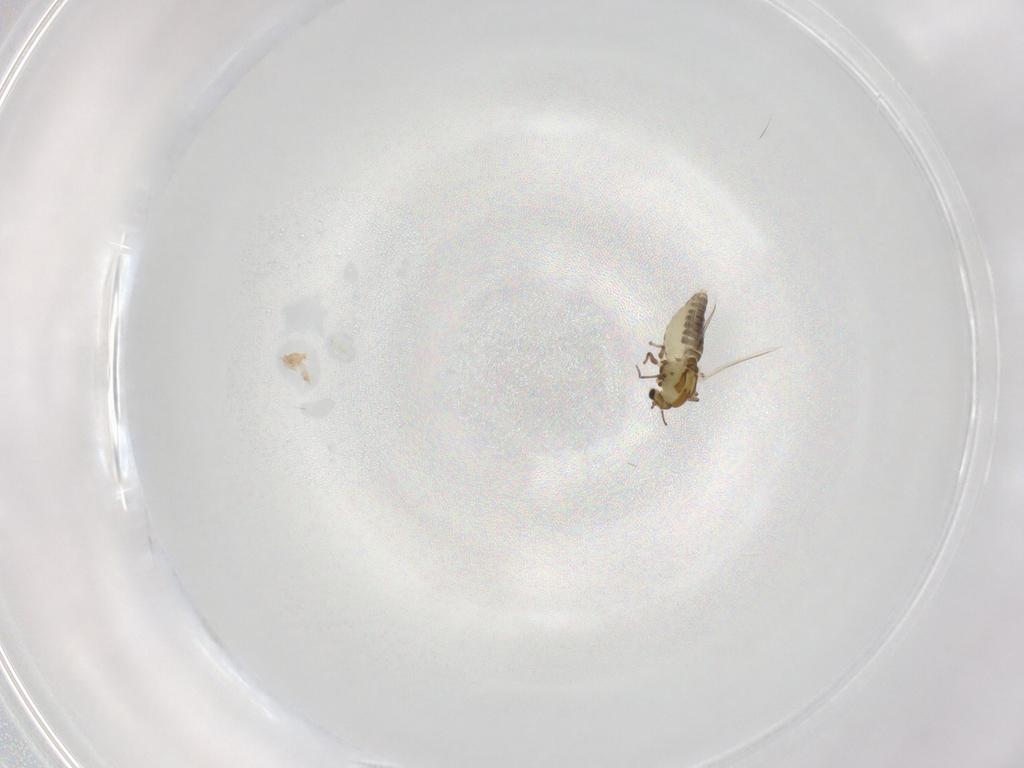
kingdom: Animalia
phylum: Arthropoda
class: Insecta
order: Diptera
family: Chironomidae
